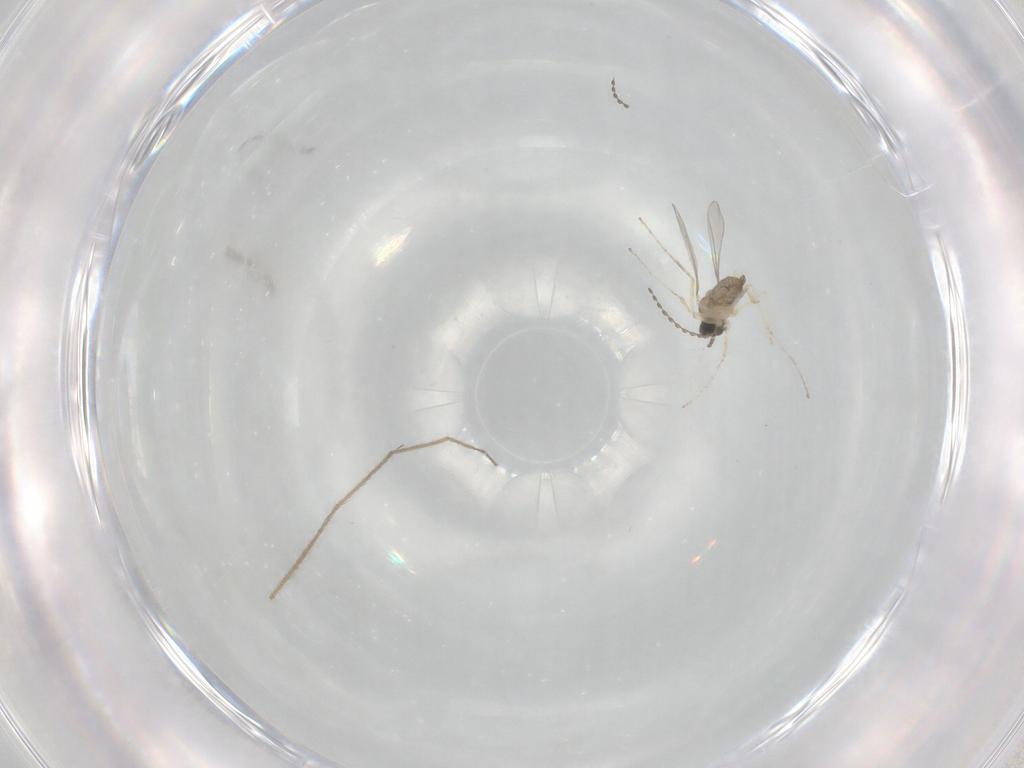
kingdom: Animalia
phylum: Arthropoda
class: Insecta
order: Diptera
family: Cecidomyiidae
